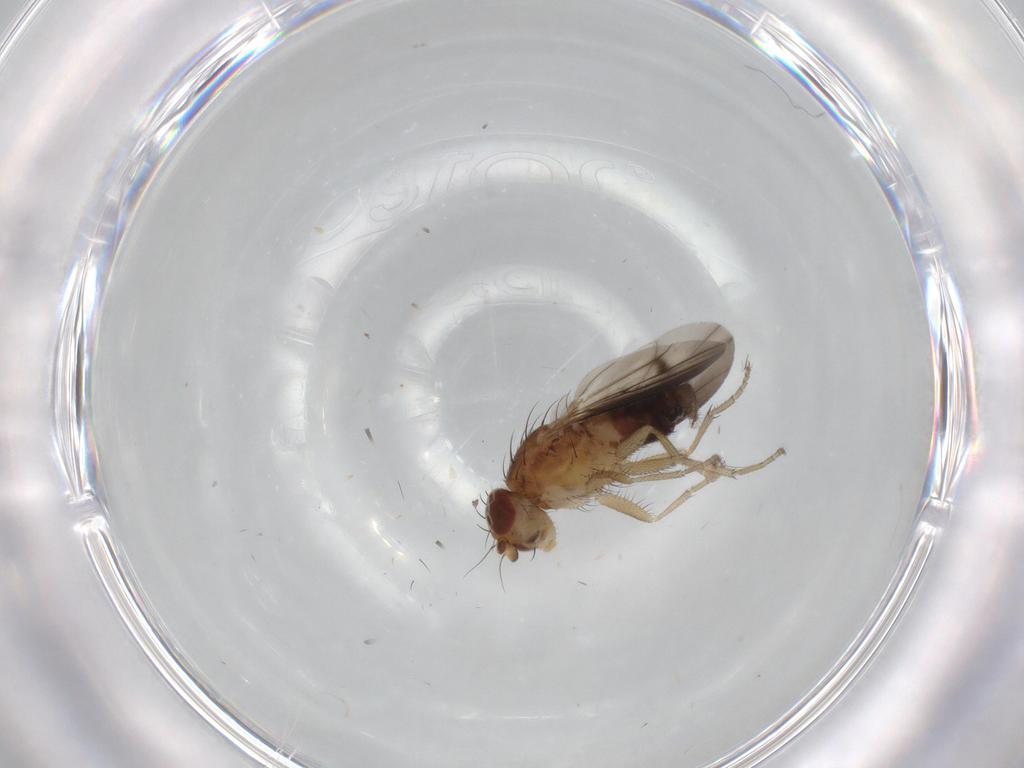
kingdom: Animalia
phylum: Arthropoda
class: Insecta
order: Diptera
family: Heleomyzidae
